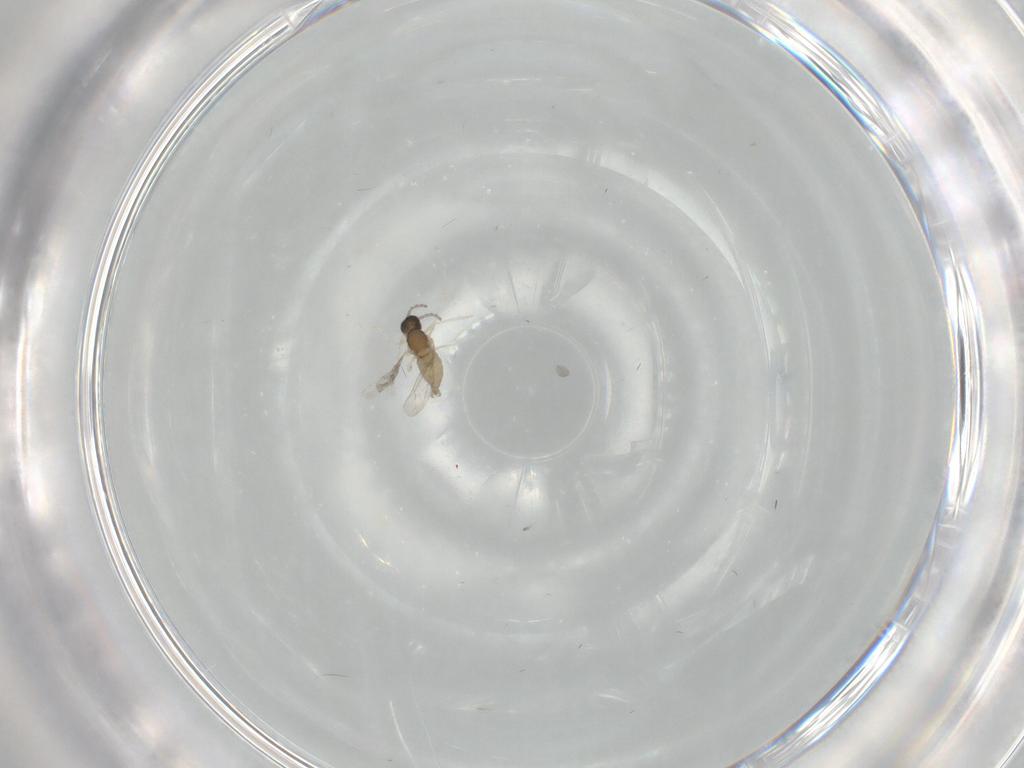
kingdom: Animalia
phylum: Arthropoda
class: Insecta
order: Diptera
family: Cecidomyiidae
